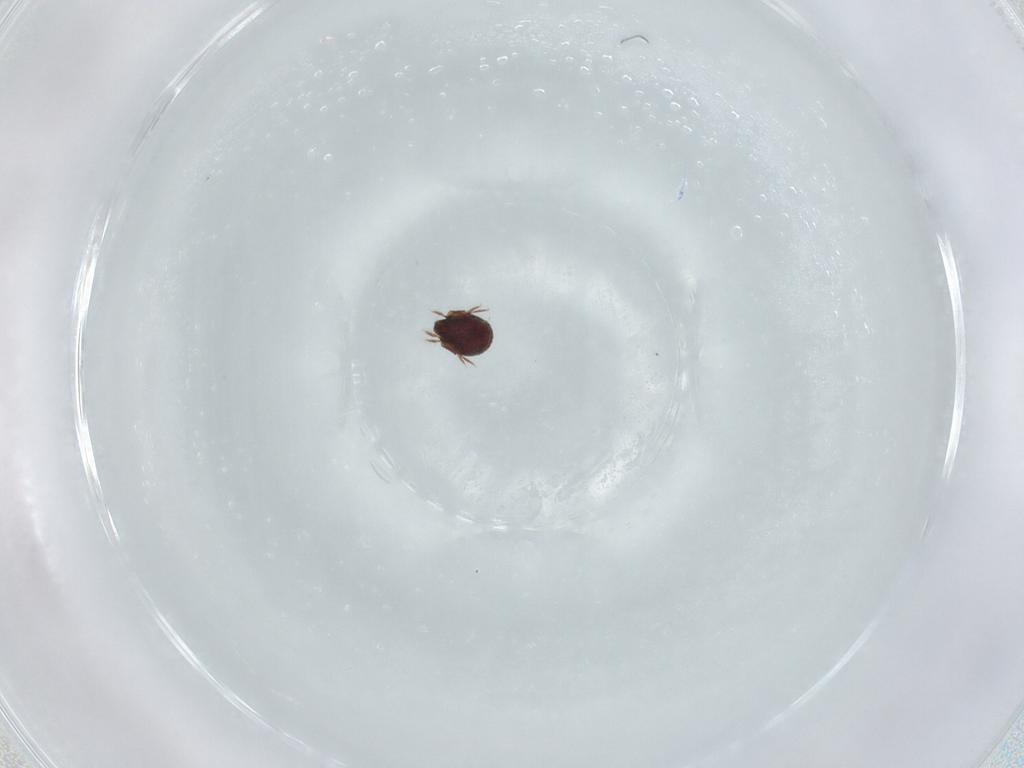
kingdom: Animalia
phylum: Arthropoda
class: Arachnida
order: Sarcoptiformes
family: Phenopelopidae
